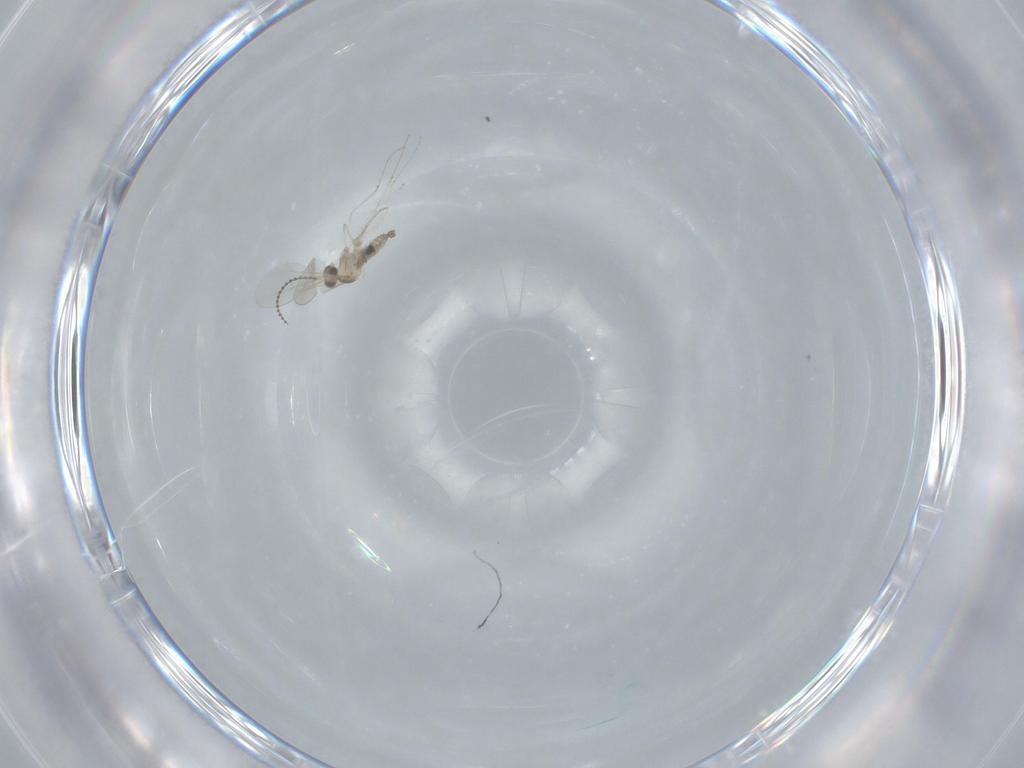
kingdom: Animalia
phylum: Arthropoda
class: Insecta
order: Diptera
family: Cecidomyiidae
